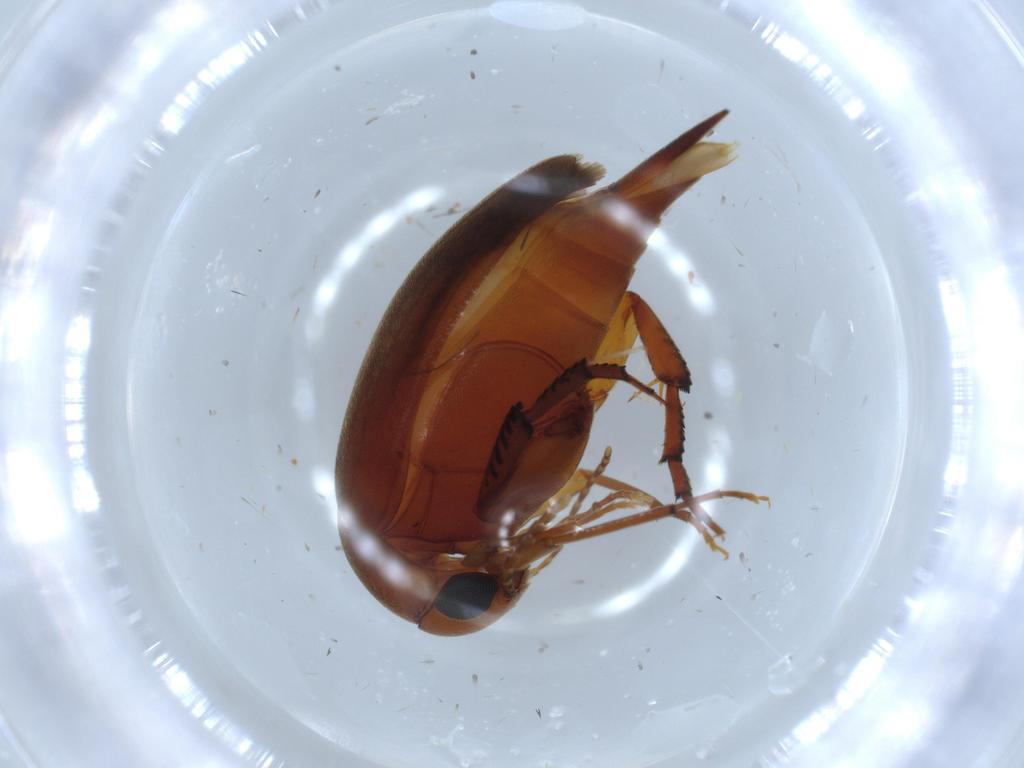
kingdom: Animalia
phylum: Arthropoda
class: Insecta
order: Coleoptera
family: Mordellidae
